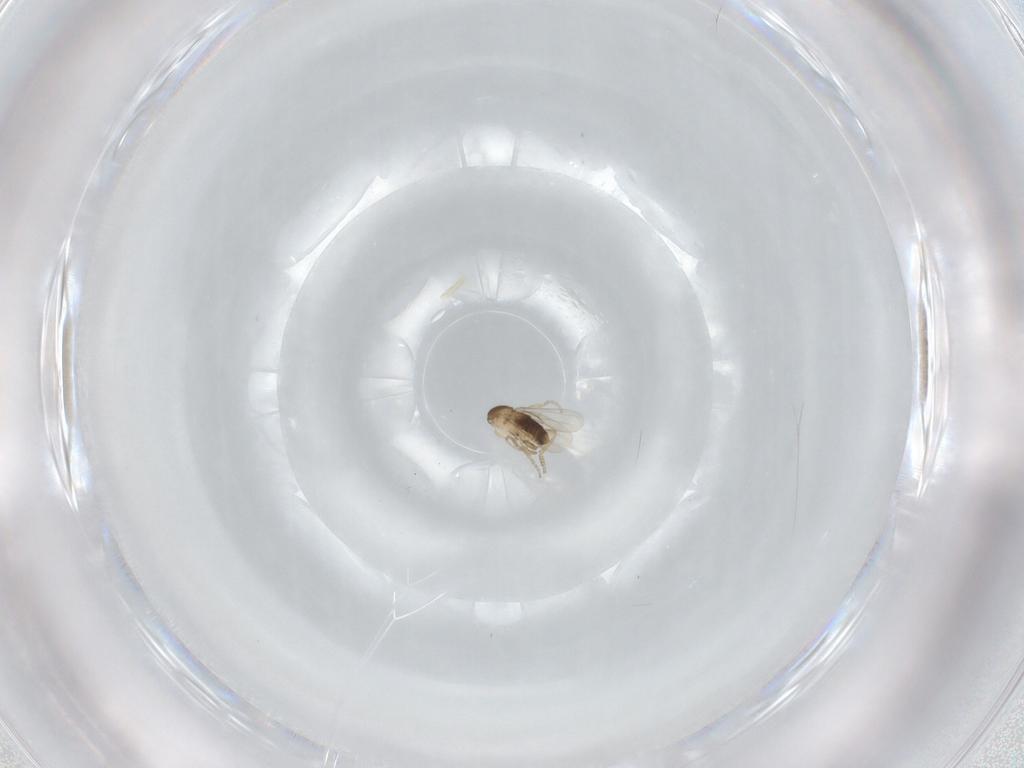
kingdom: Animalia
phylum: Arthropoda
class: Insecta
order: Diptera
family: Phoridae
